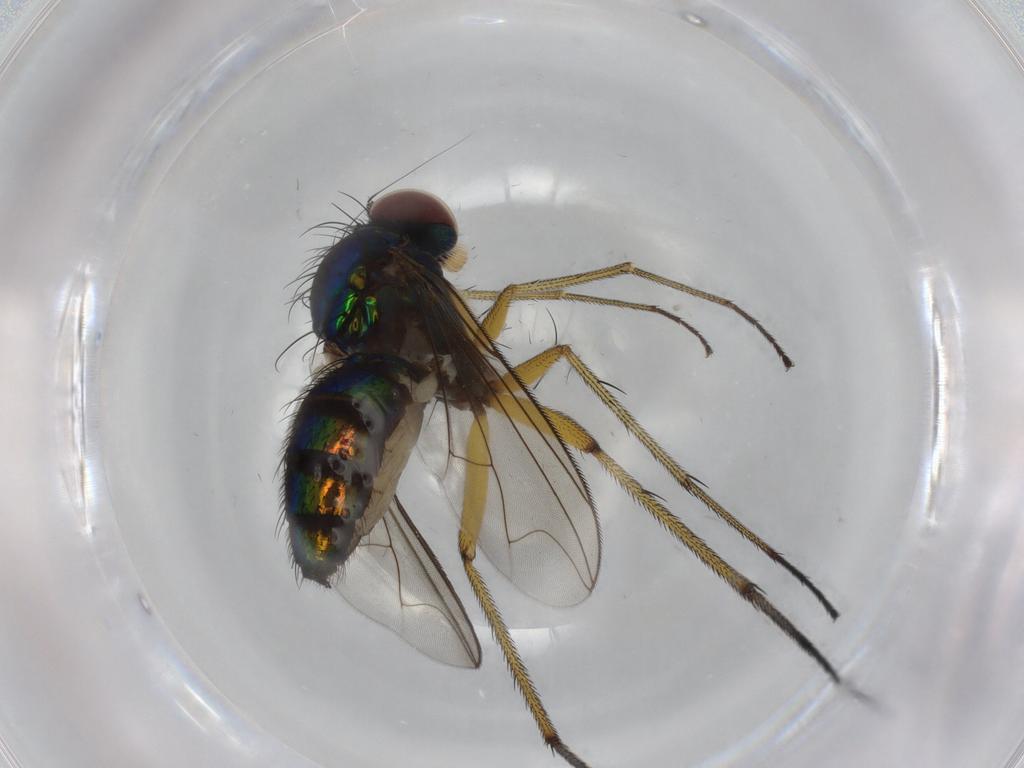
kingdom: Animalia
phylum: Arthropoda
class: Insecta
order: Diptera
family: Dolichopodidae
